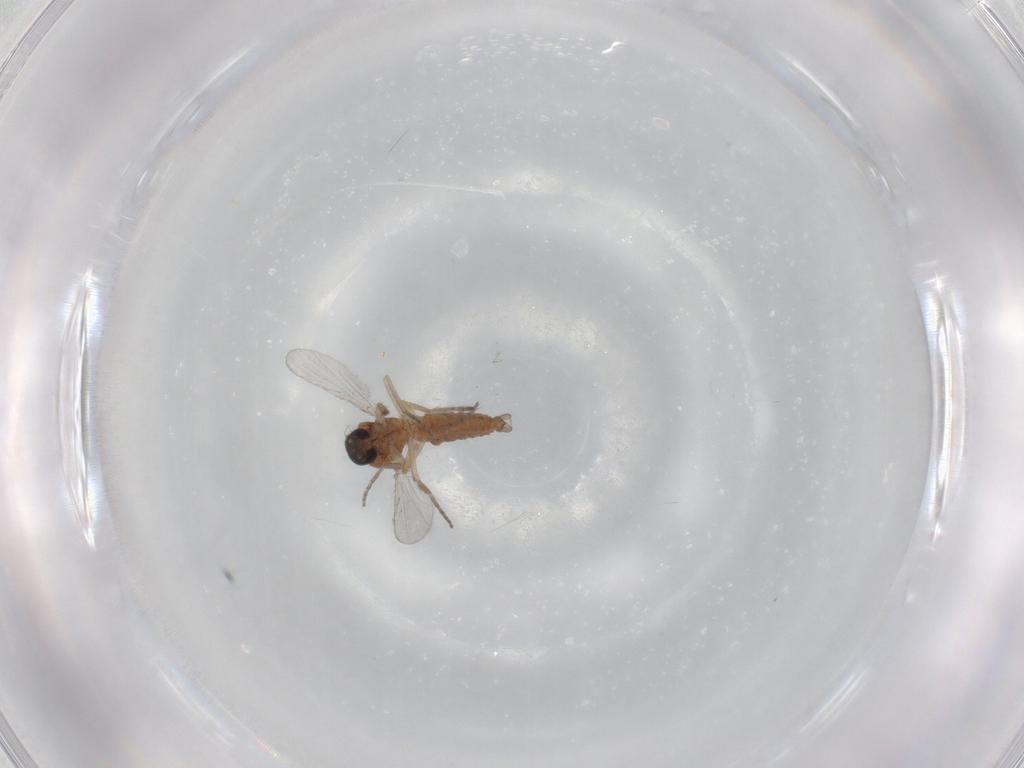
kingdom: Animalia
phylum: Arthropoda
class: Insecta
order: Diptera
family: Ceratopogonidae
